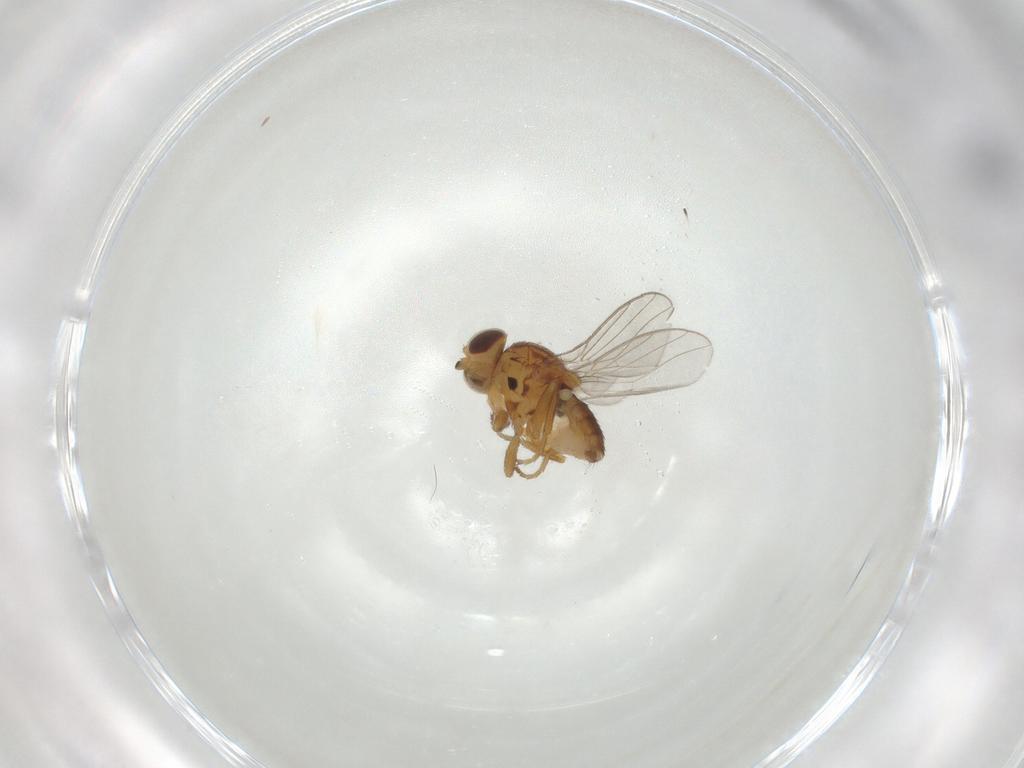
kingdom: Animalia
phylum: Arthropoda
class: Insecta
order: Diptera
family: Chloropidae
